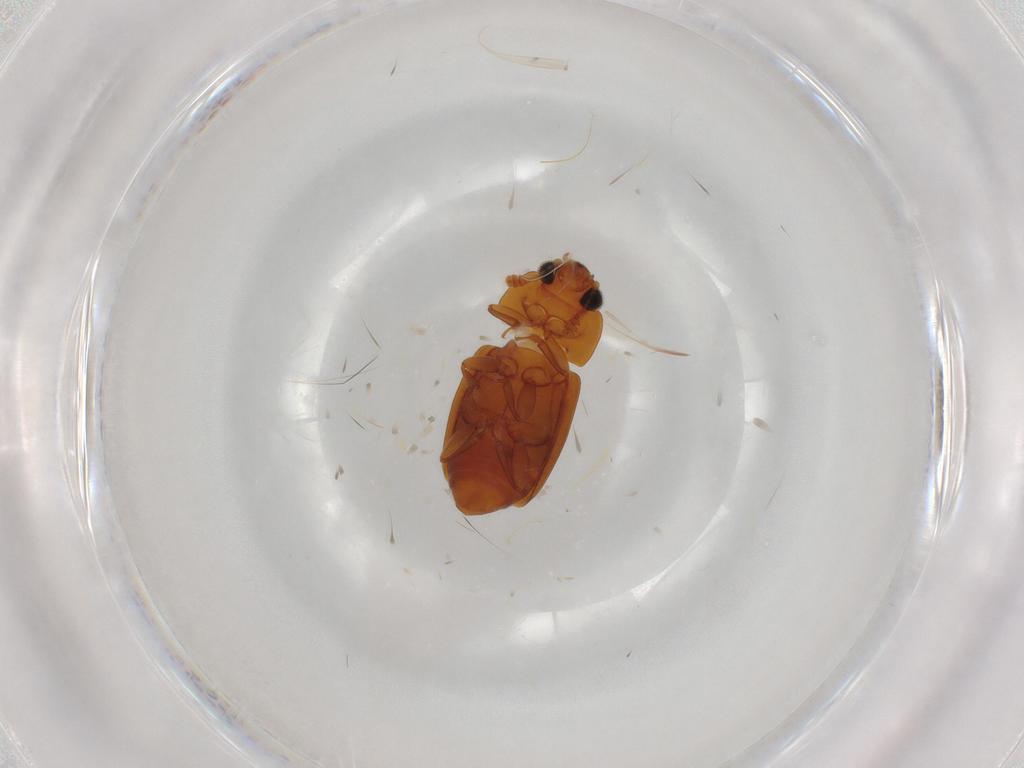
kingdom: Animalia
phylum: Arthropoda
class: Insecta
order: Coleoptera
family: Nitidulidae
